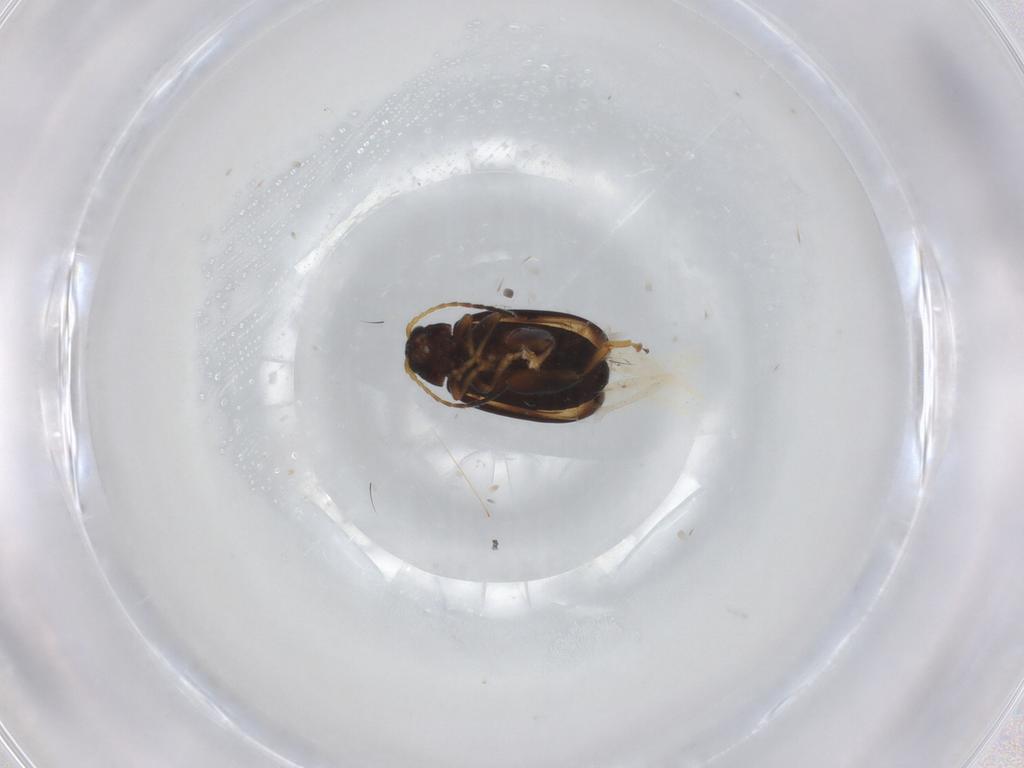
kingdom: Animalia
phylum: Arthropoda
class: Insecta
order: Coleoptera
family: Chrysomelidae
